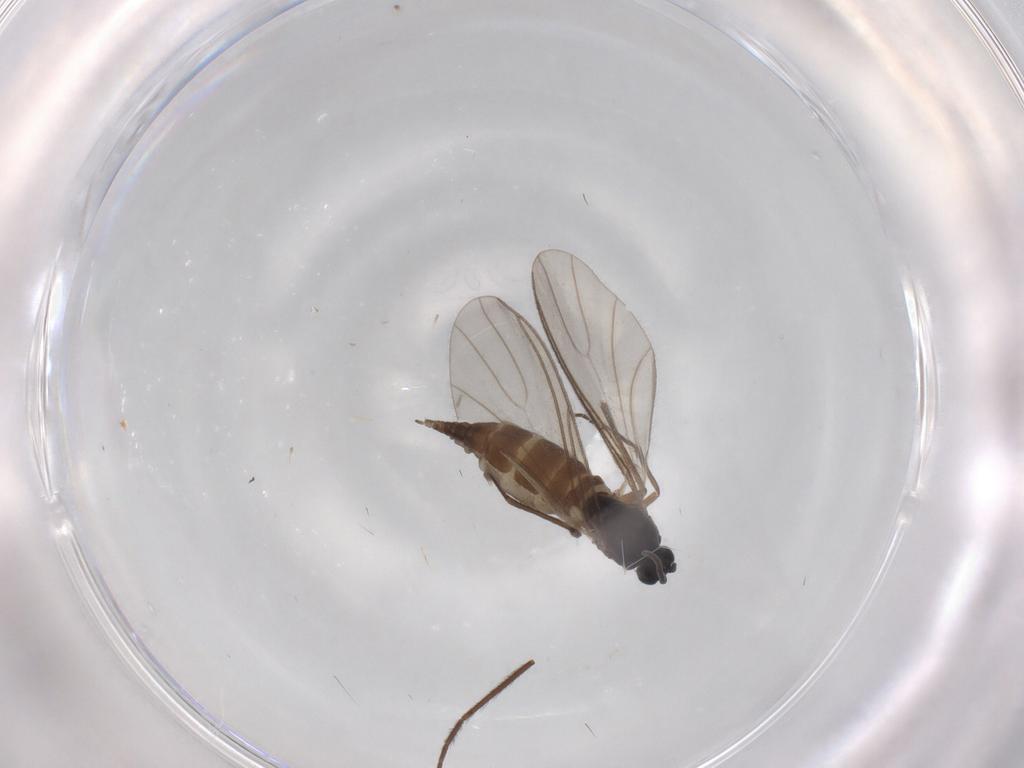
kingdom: Animalia
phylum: Arthropoda
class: Insecta
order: Diptera
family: Sciaridae
